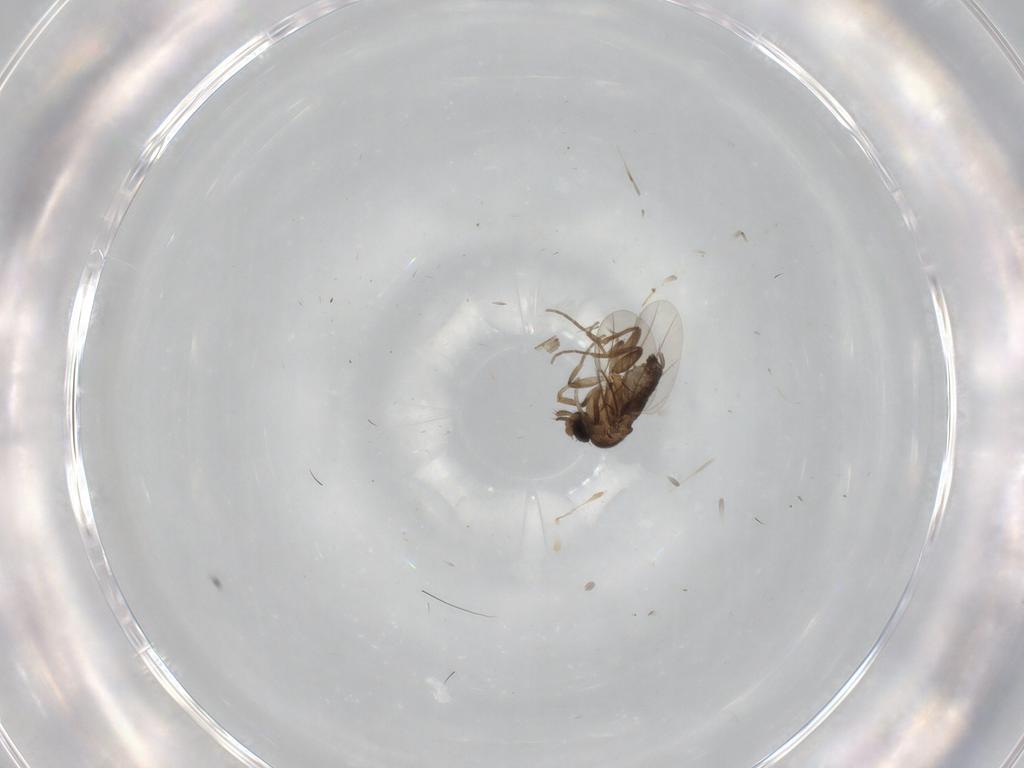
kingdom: Animalia
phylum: Arthropoda
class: Insecta
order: Diptera
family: Cecidomyiidae
